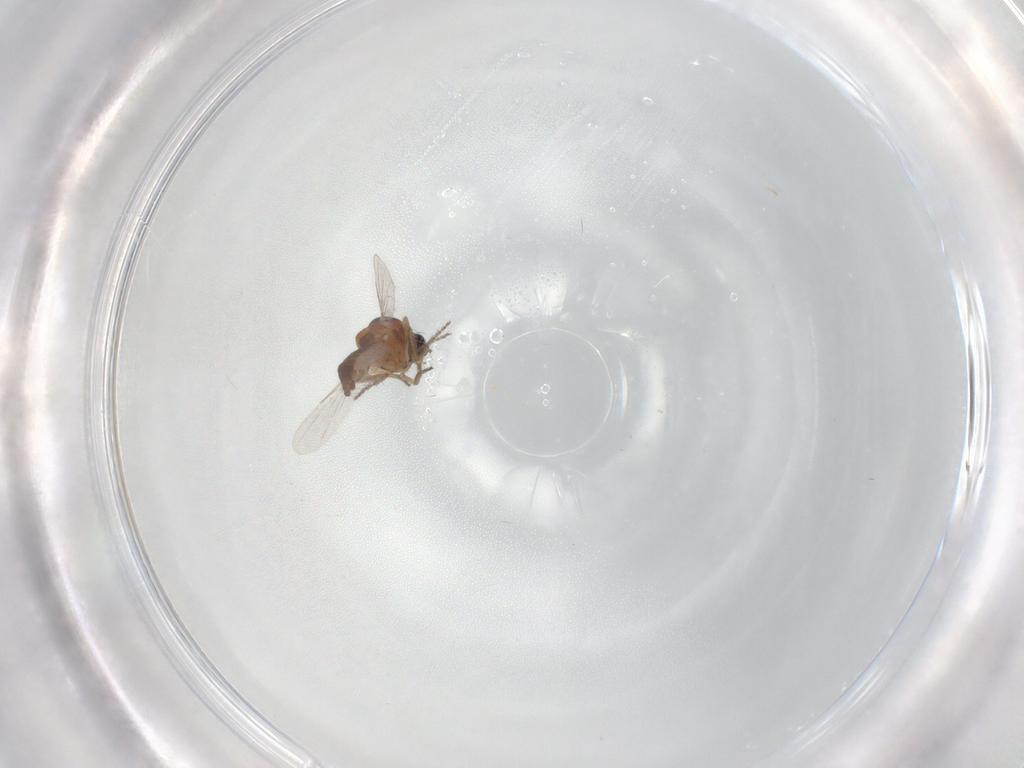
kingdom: Animalia
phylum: Arthropoda
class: Insecta
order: Diptera
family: Ceratopogonidae
